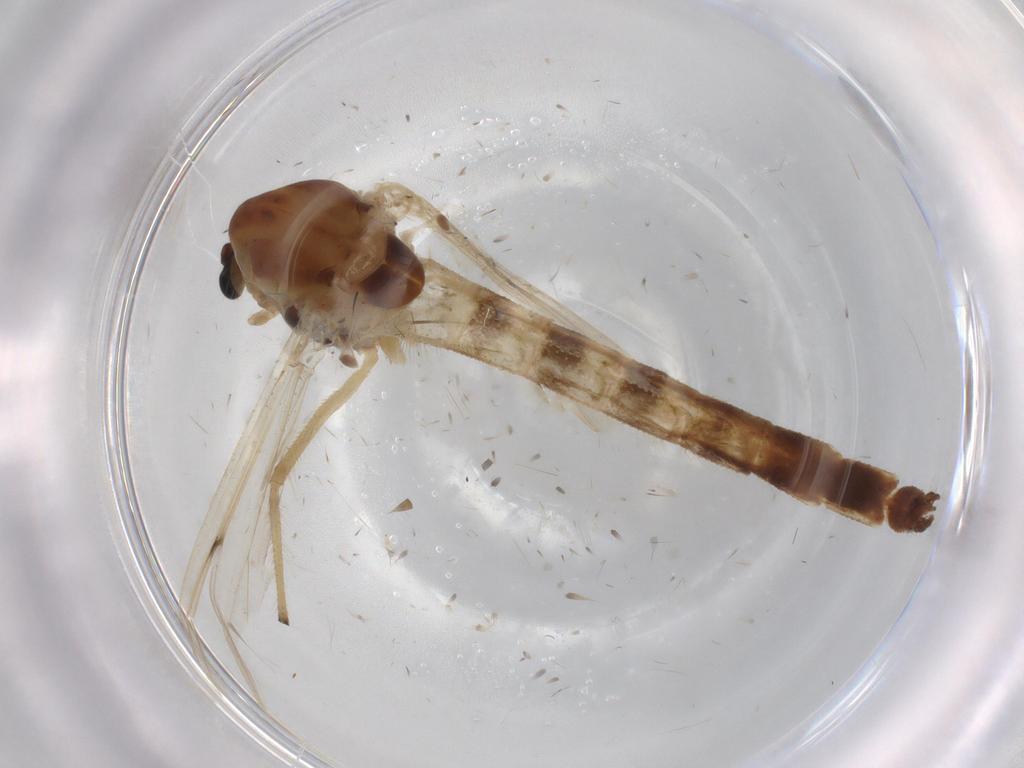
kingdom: Animalia
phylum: Arthropoda
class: Insecta
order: Diptera
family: Chironomidae
